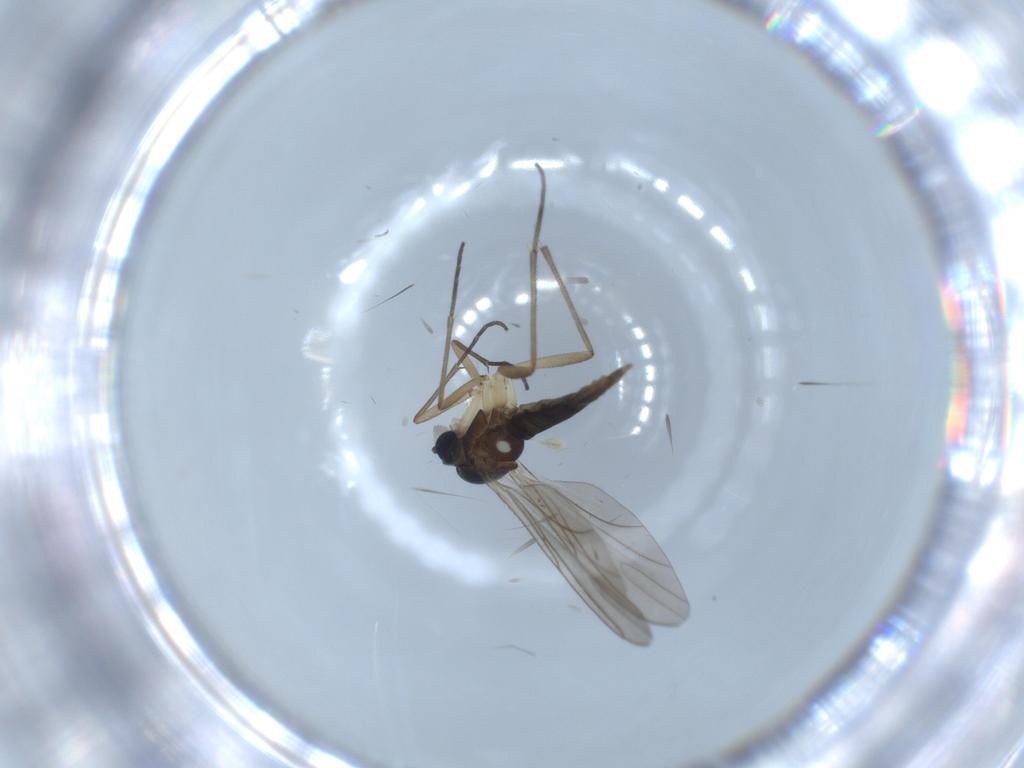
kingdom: Animalia
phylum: Arthropoda
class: Insecta
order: Diptera
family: Sciaridae
